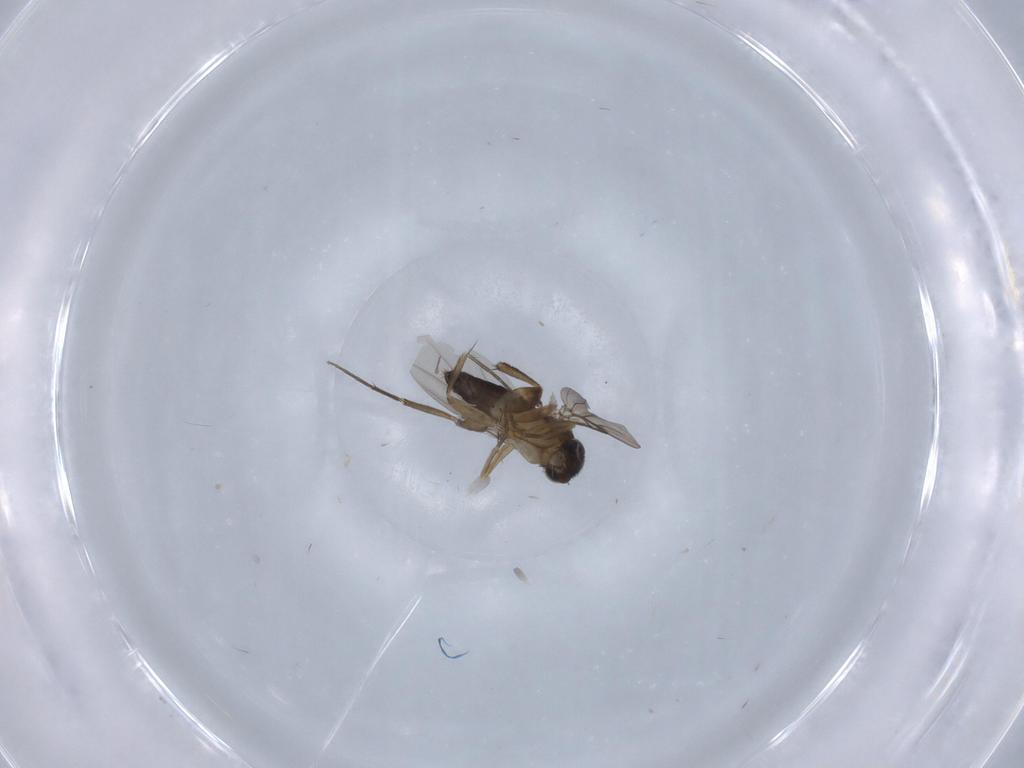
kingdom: Animalia
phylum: Arthropoda
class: Insecta
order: Diptera
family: Phoridae
